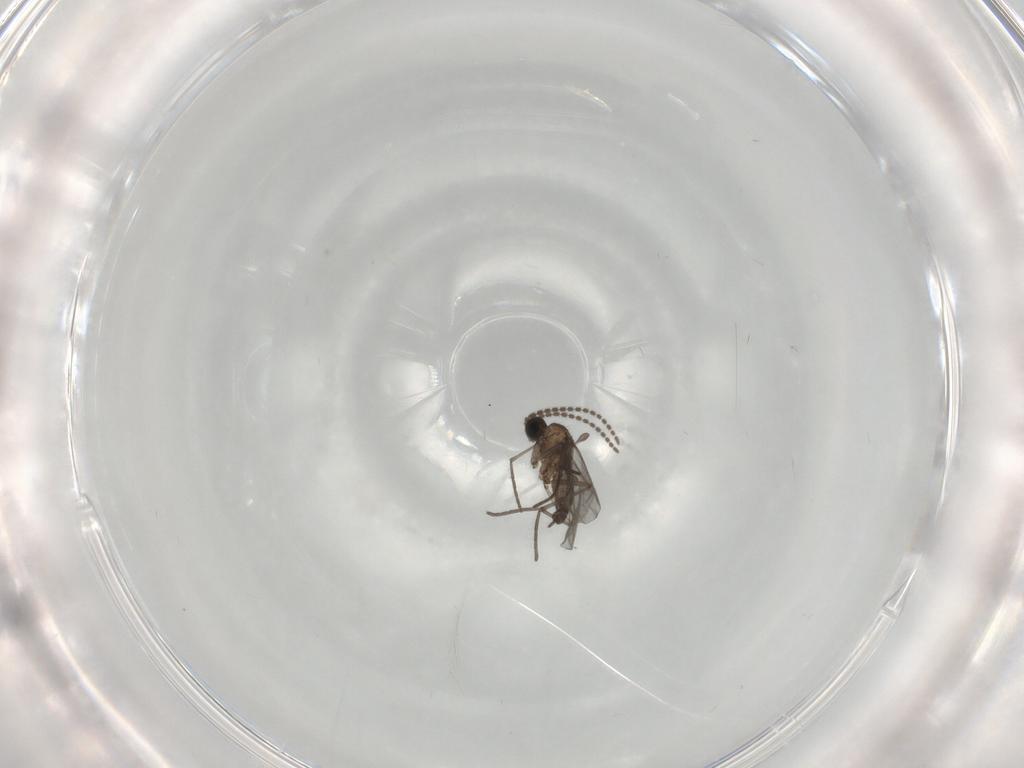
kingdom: Animalia
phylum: Arthropoda
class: Insecta
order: Diptera
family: Sciaridae
